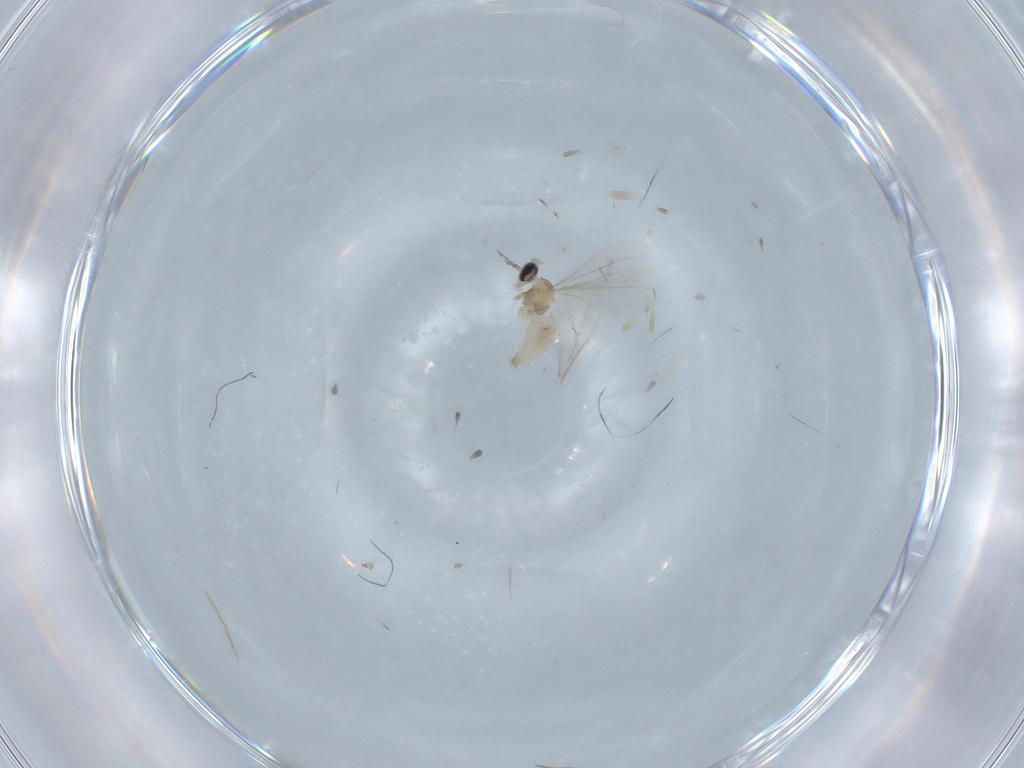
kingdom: Animalia
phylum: Arthropoda
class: Insecta
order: Diptera
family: Cecidomyiidae
